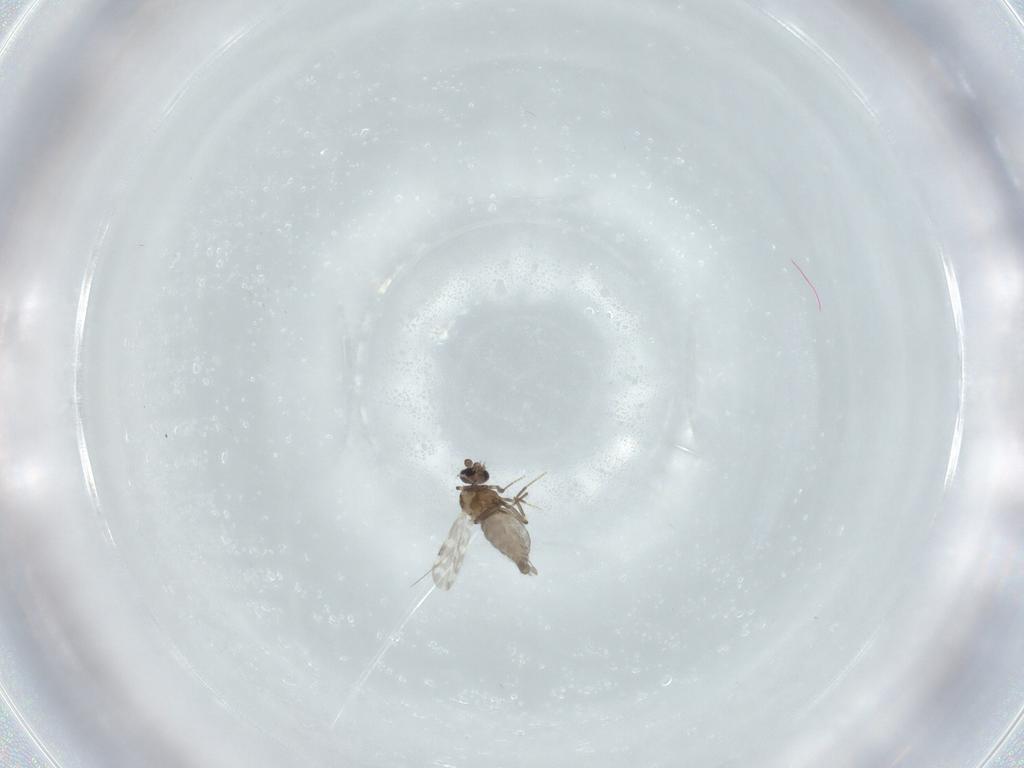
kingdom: Animalia
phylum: Arthropoda
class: Insecta
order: Diptera
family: Ceratopogonidae
